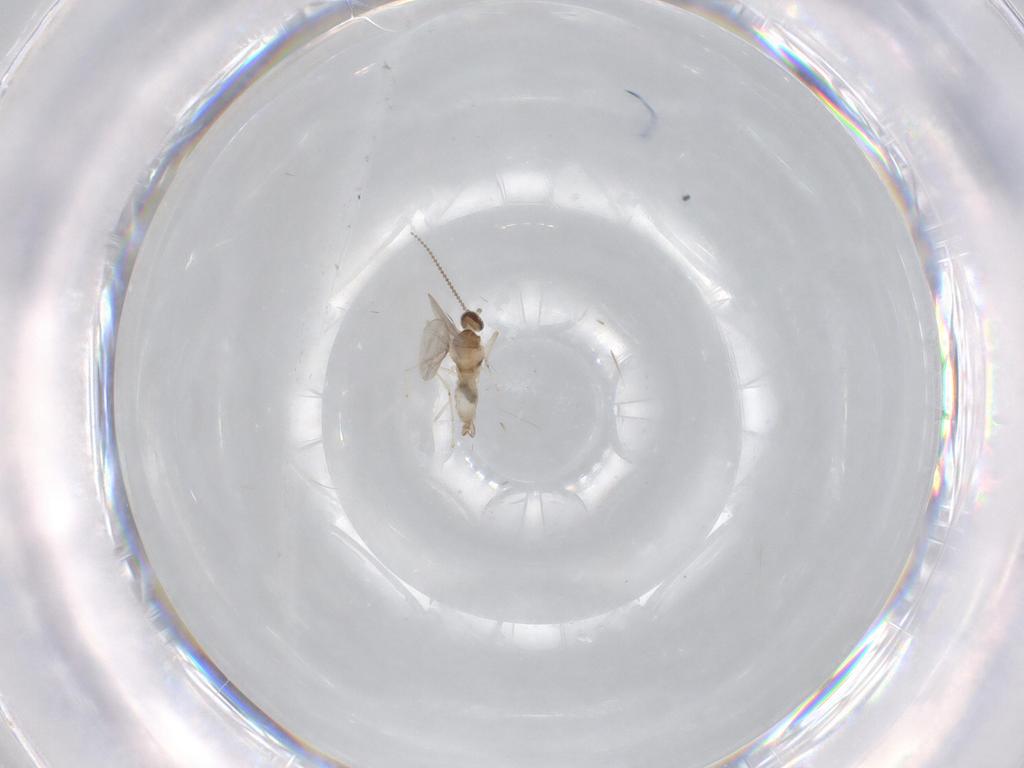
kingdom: Animalia
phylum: Arthropoda
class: Insecta
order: Diptera
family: Cecidomyiidae
